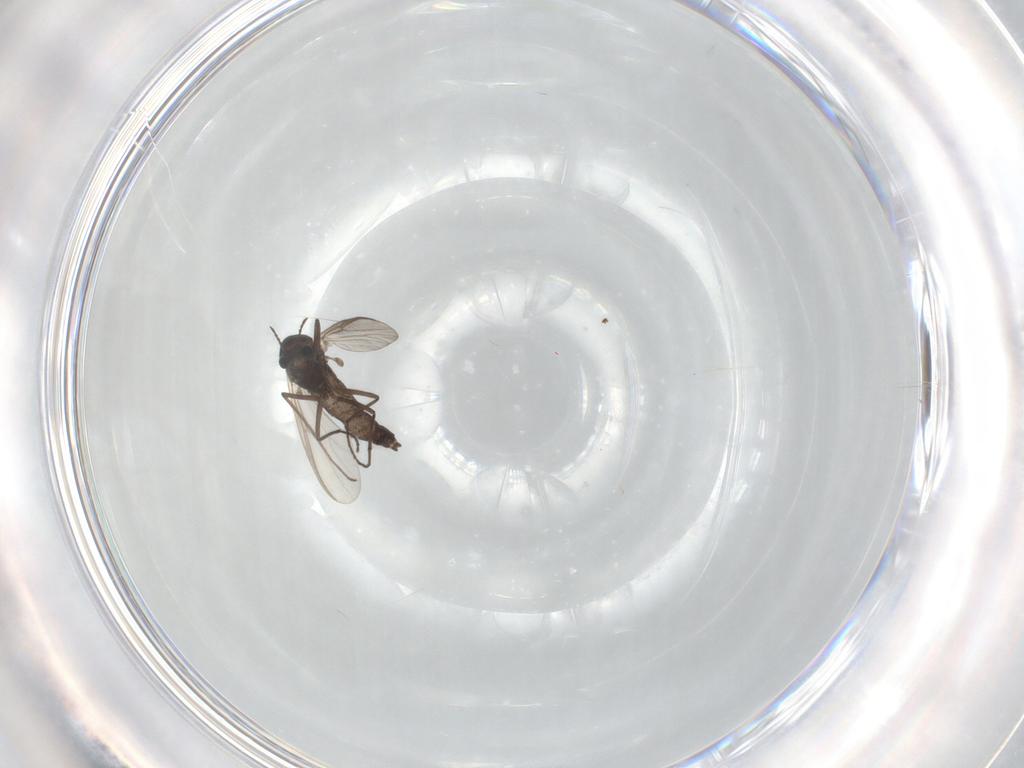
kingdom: Animalia
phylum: Arthropoda
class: Insecta
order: Diptera
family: Chironomidae
